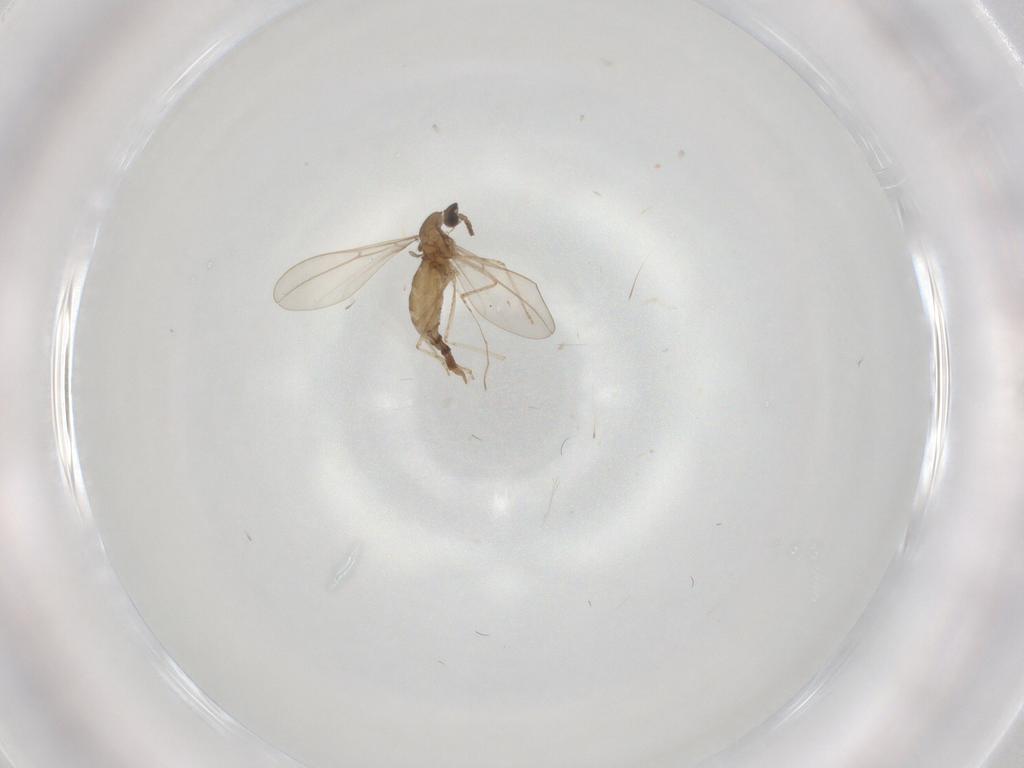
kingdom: Animalia
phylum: Arthropoda
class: Insecta
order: Diptera
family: Cecidomyiidae
